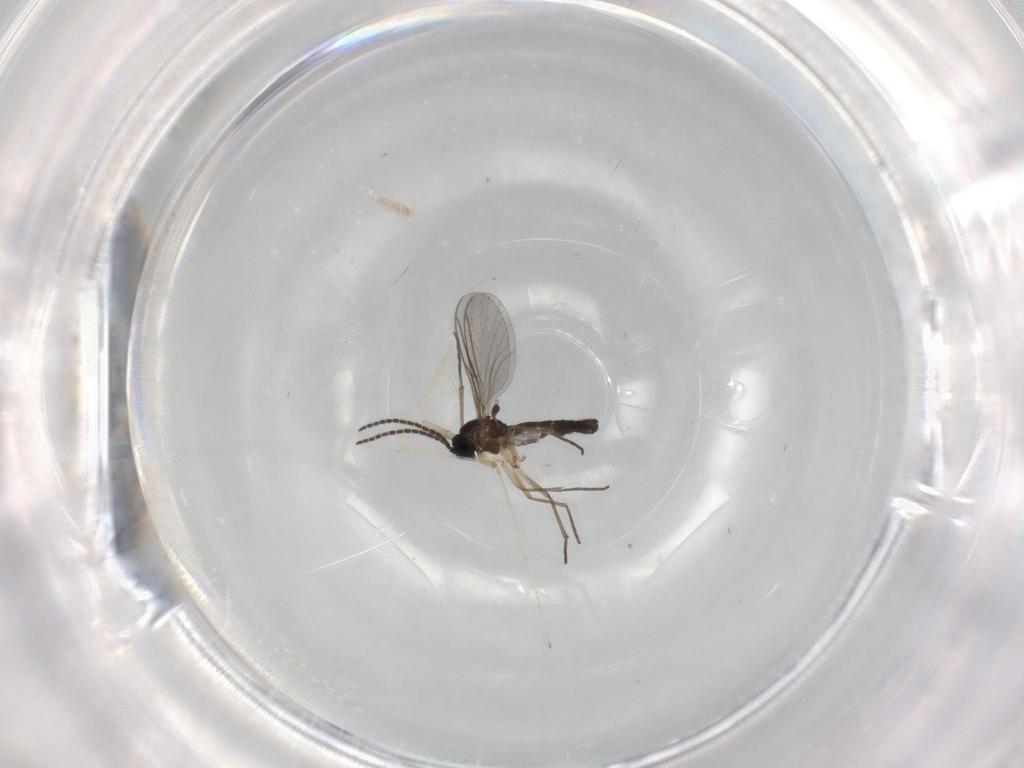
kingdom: Animalia
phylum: Arthropoda
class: Insecta
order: Diptera
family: Sciaridae
